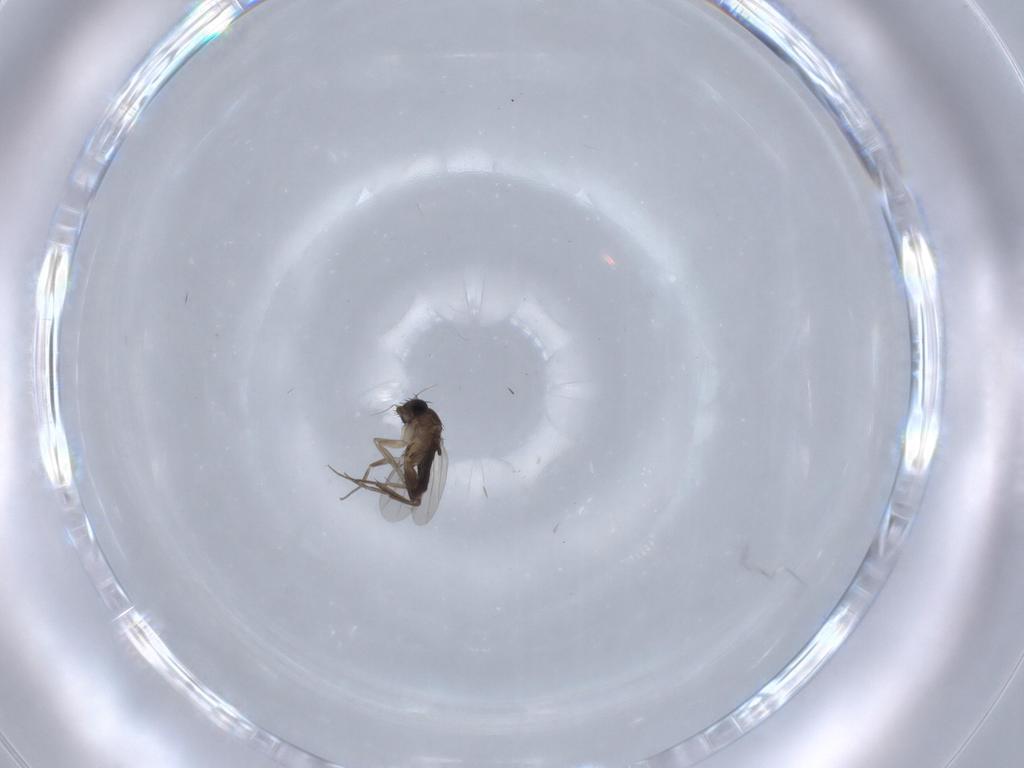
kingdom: Animalia
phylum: Arthropoda
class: Insecta
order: Diptera
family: Phoridae
